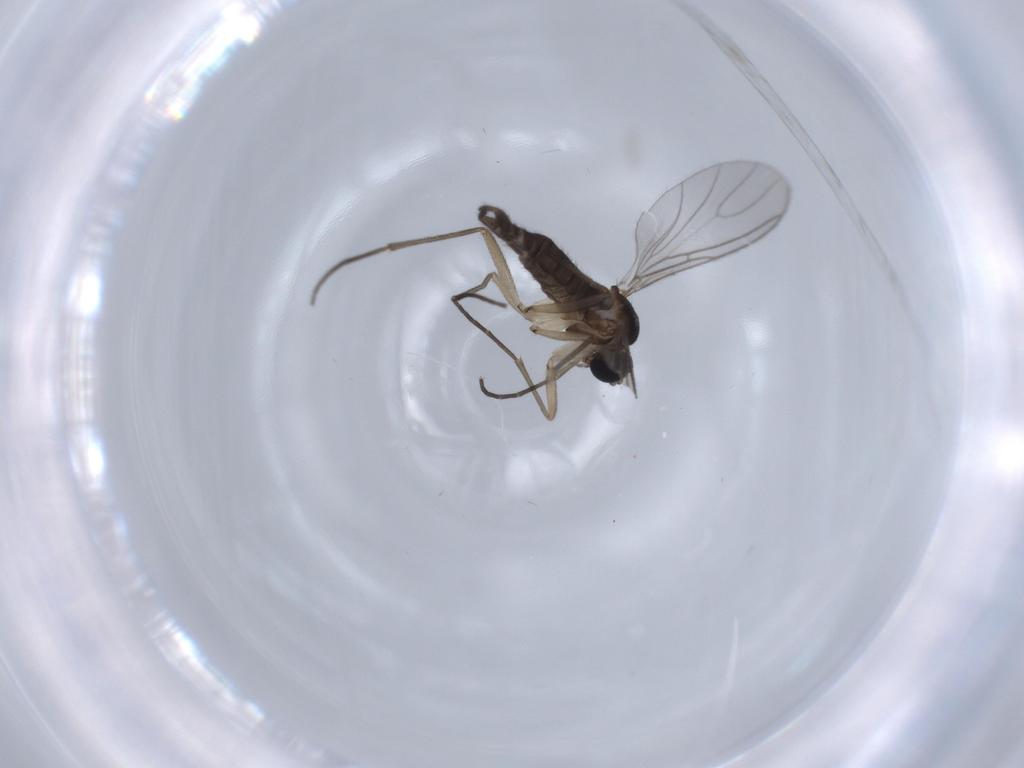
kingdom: Animalia
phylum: Arthropoda
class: Insecta
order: Diptera
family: Sciaridae
